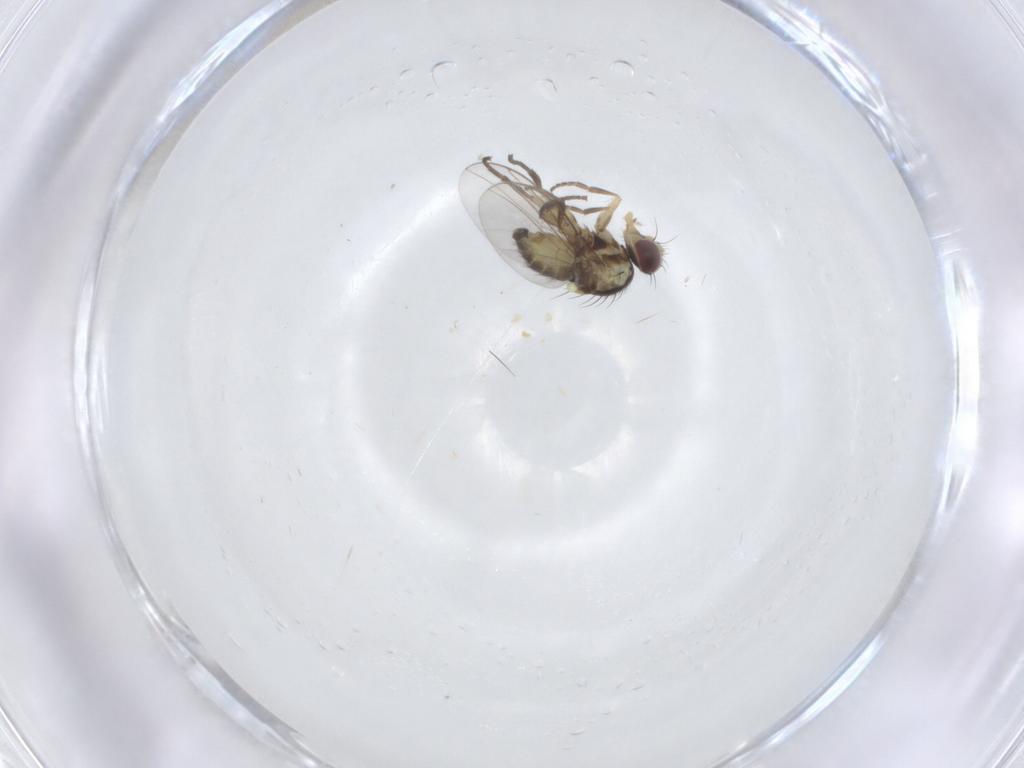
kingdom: Animalia
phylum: Arthropoda
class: Insecta
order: Diptera
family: Agromyzidae
